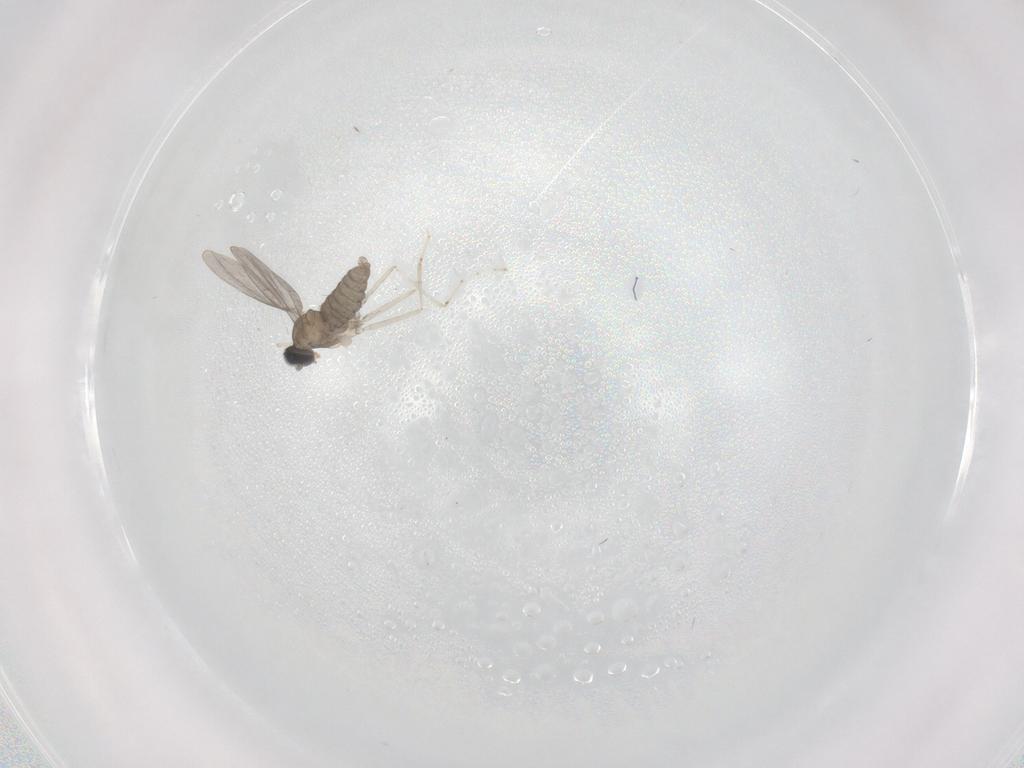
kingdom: Animalia
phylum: Arthropoda
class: Insecta
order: Diptera
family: Cecidomyiidae
